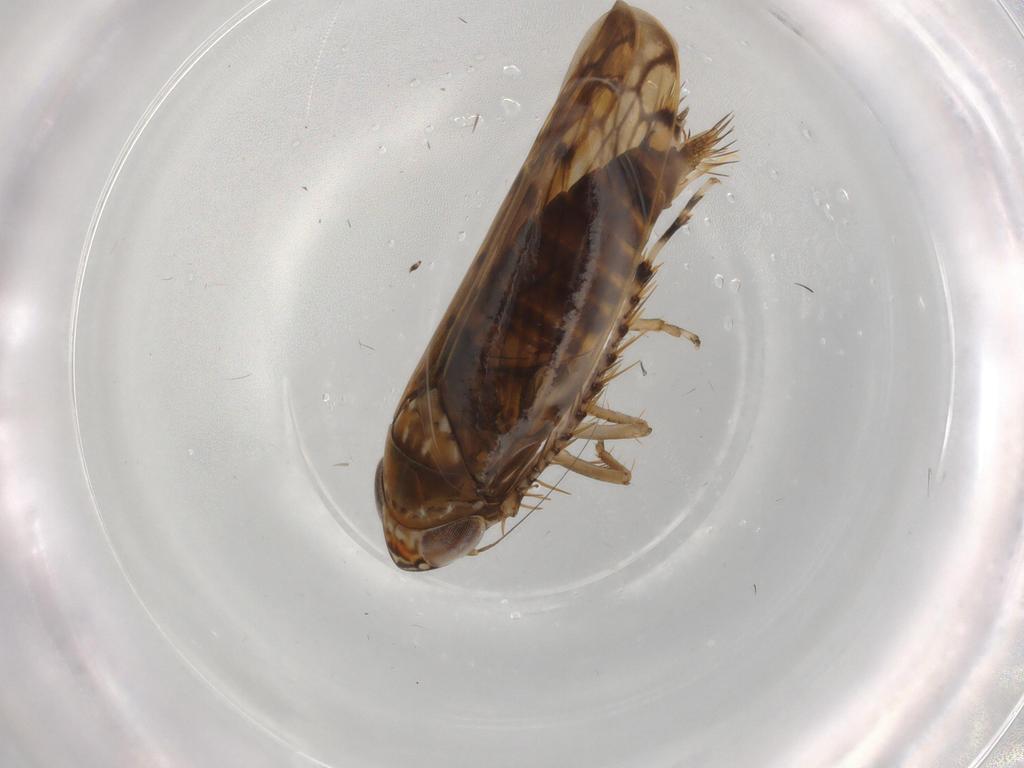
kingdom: Animalia
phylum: Arthropoda
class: Insecta
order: Hemiptera
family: Cicadellidae
